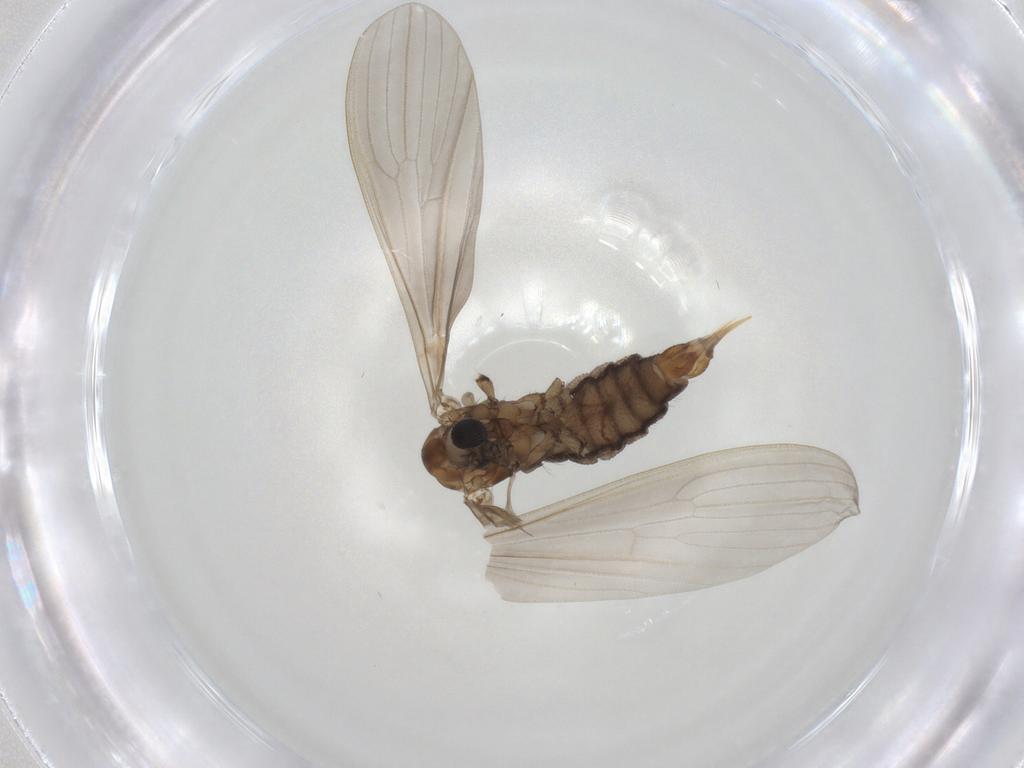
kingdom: Animalia
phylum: Arthropoda
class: Insecta
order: Diptera
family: Limoniidae
